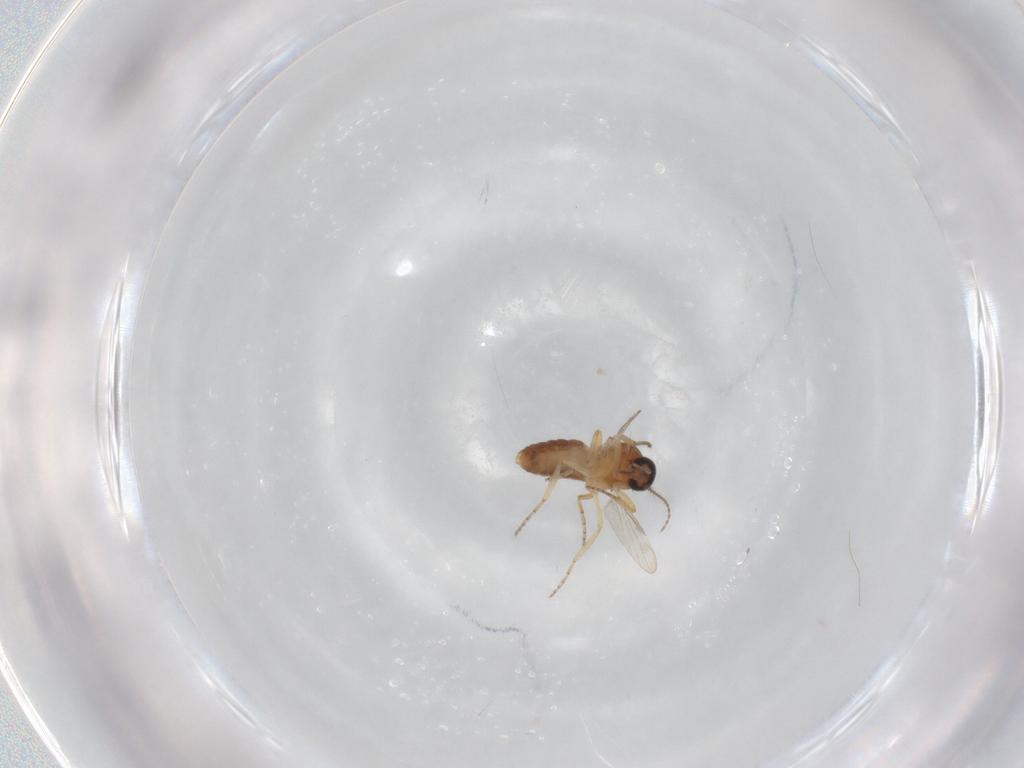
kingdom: Animalia
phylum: Arthropoda
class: Insecta
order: Diptera
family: Ceratopogonidae
